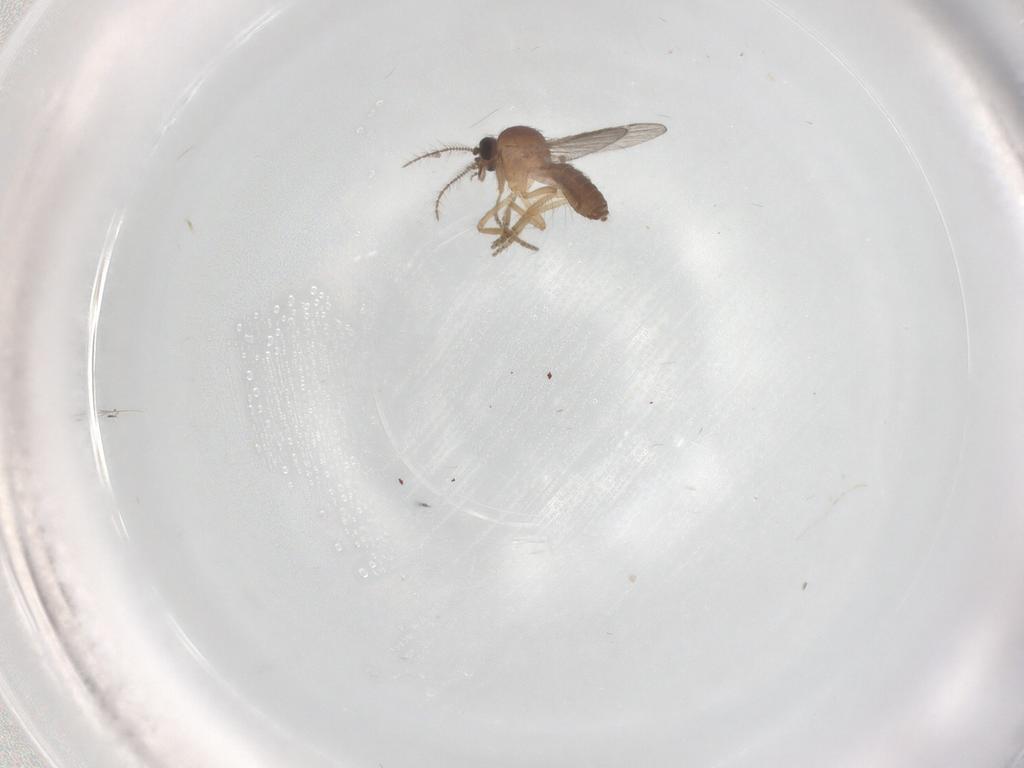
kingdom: Animalia
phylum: Arthropoda
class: Insecta
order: Diptera
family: Ceratopogonidae
